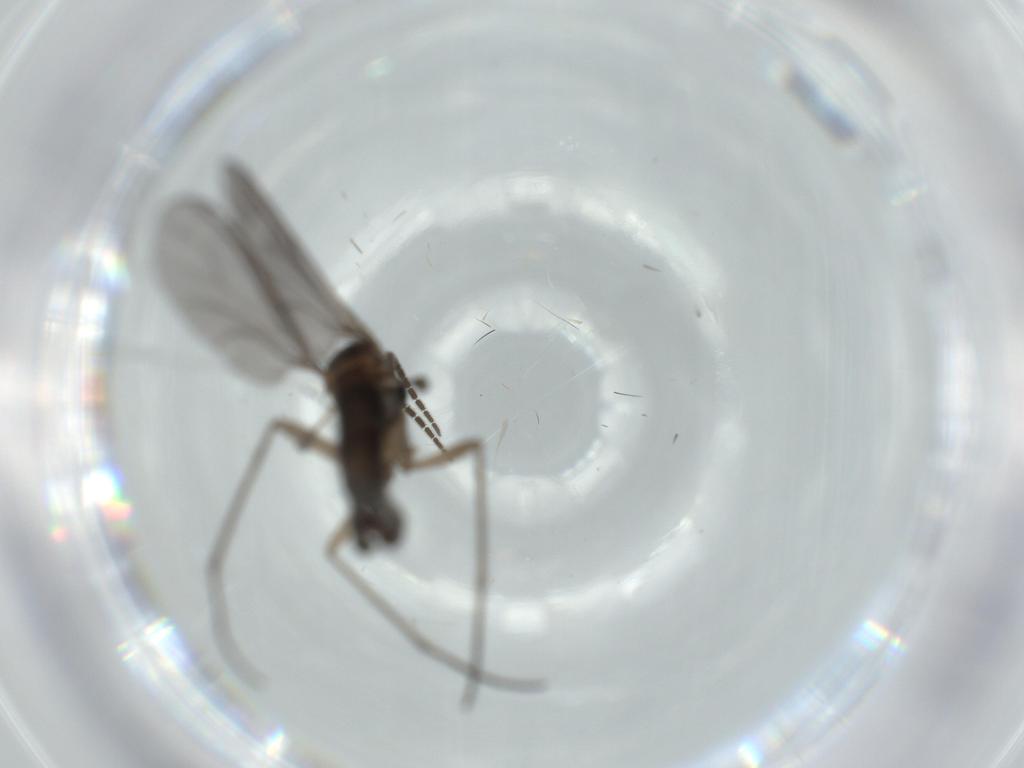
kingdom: Animalia
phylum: Arthropoda
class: Insecta
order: Diptera
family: Sciaridae
